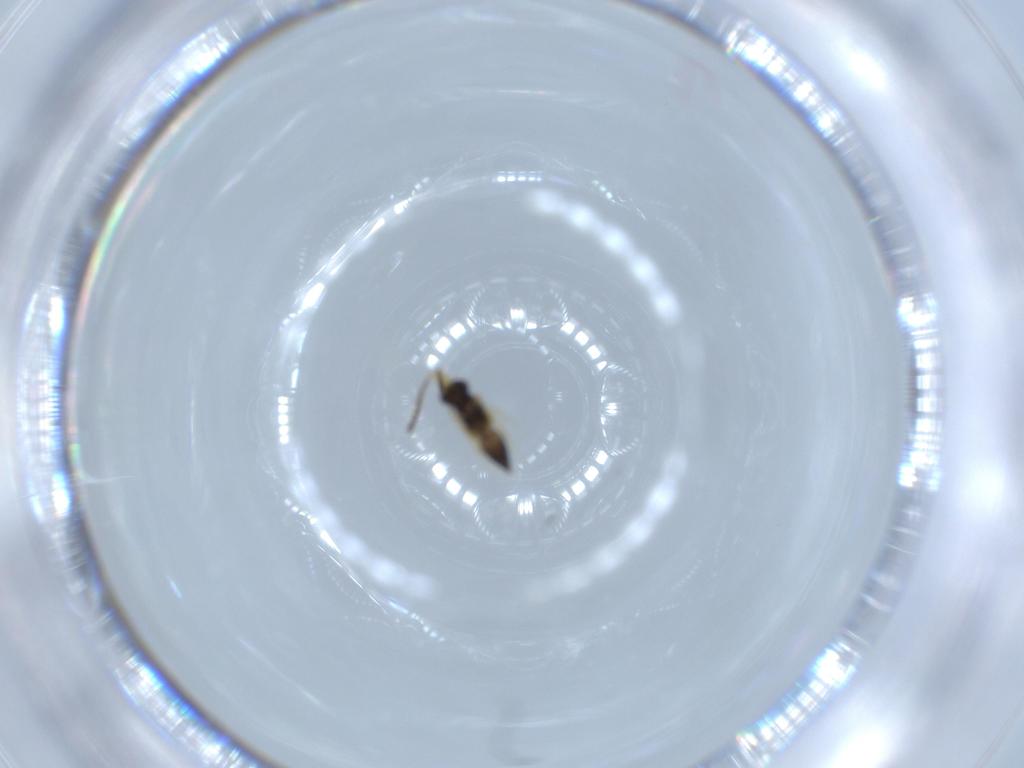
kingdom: Animalia
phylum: Arthropoda
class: Insecta
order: Hymenoptera
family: Ceraphronidae
